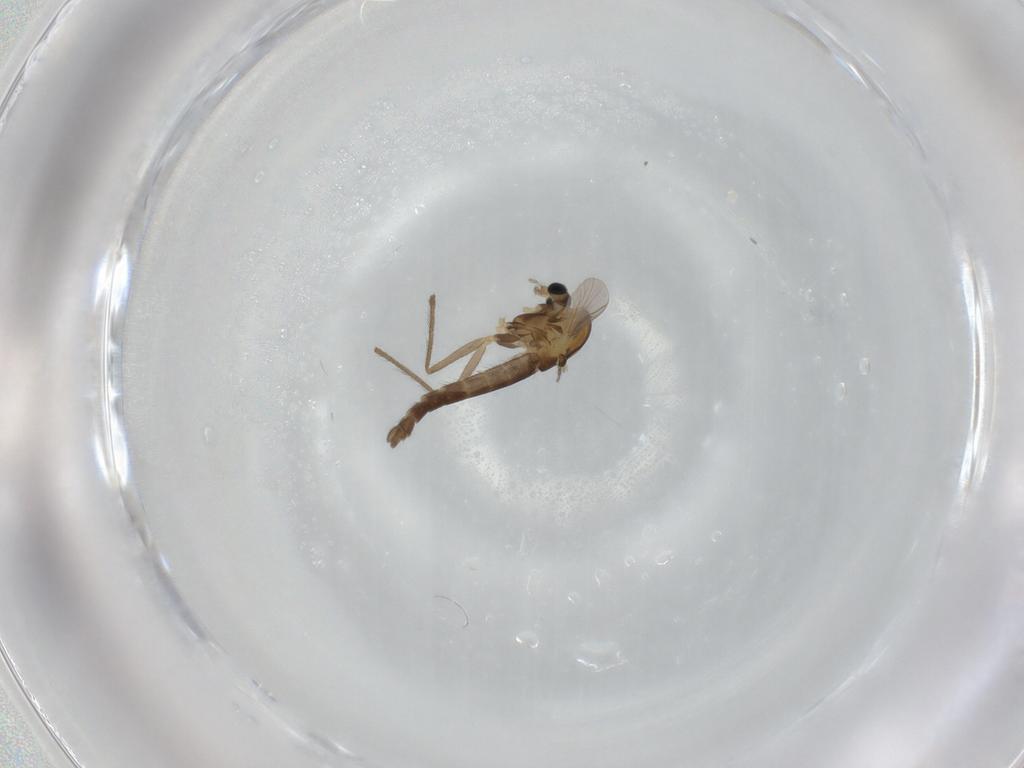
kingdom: Animalia
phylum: Arthropoda
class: Insecta
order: Diptera
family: Chironomidae
